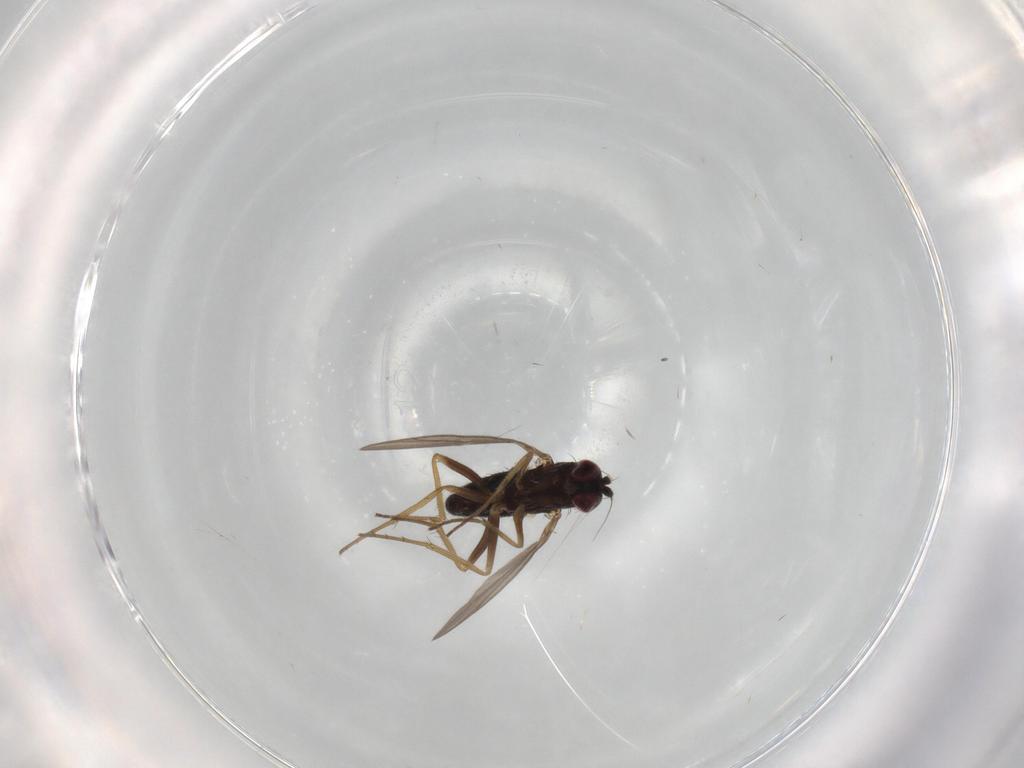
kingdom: Animalia
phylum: Arthropoda
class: Insecta
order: Diptera
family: Dolichopodidae
